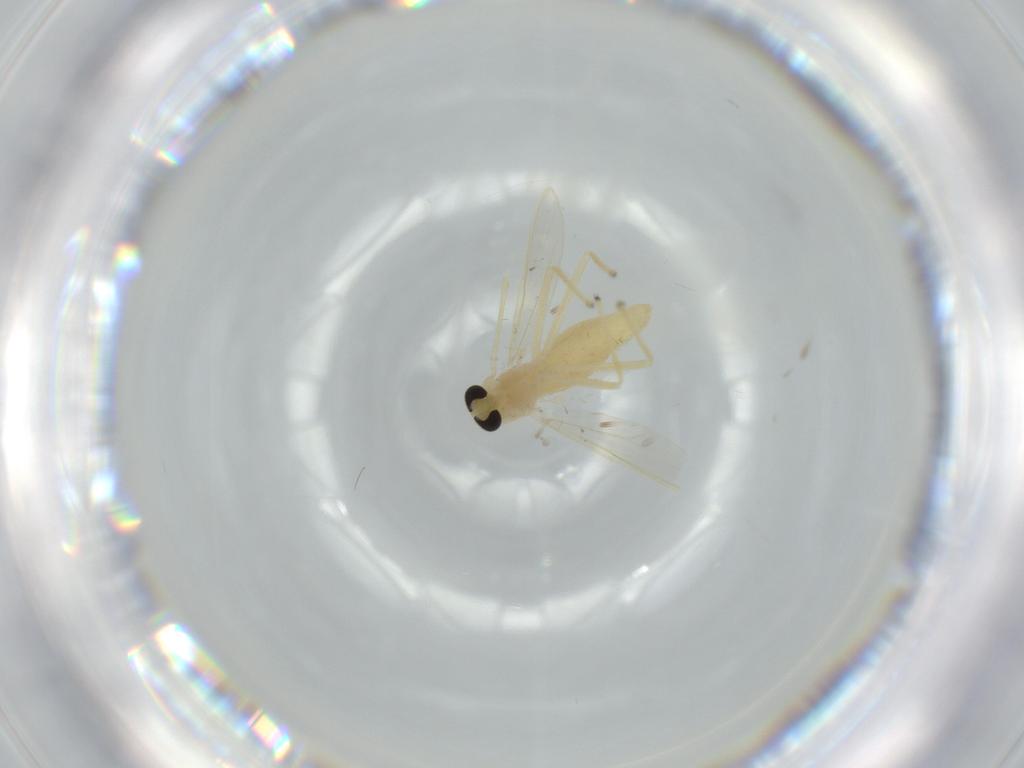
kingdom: Animalia
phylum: Arthropoda
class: Insecta
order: Diptera
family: Chironomidae
